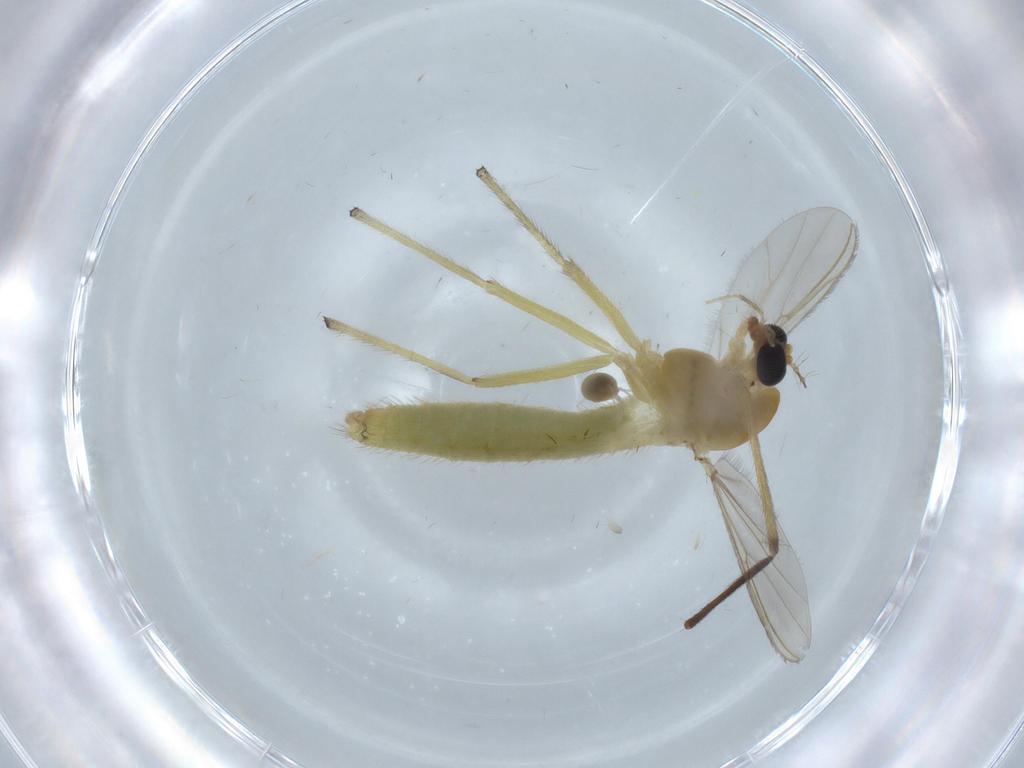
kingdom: Animalia
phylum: Arthropoda
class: Insecta
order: Diptera
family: Chironomidae
